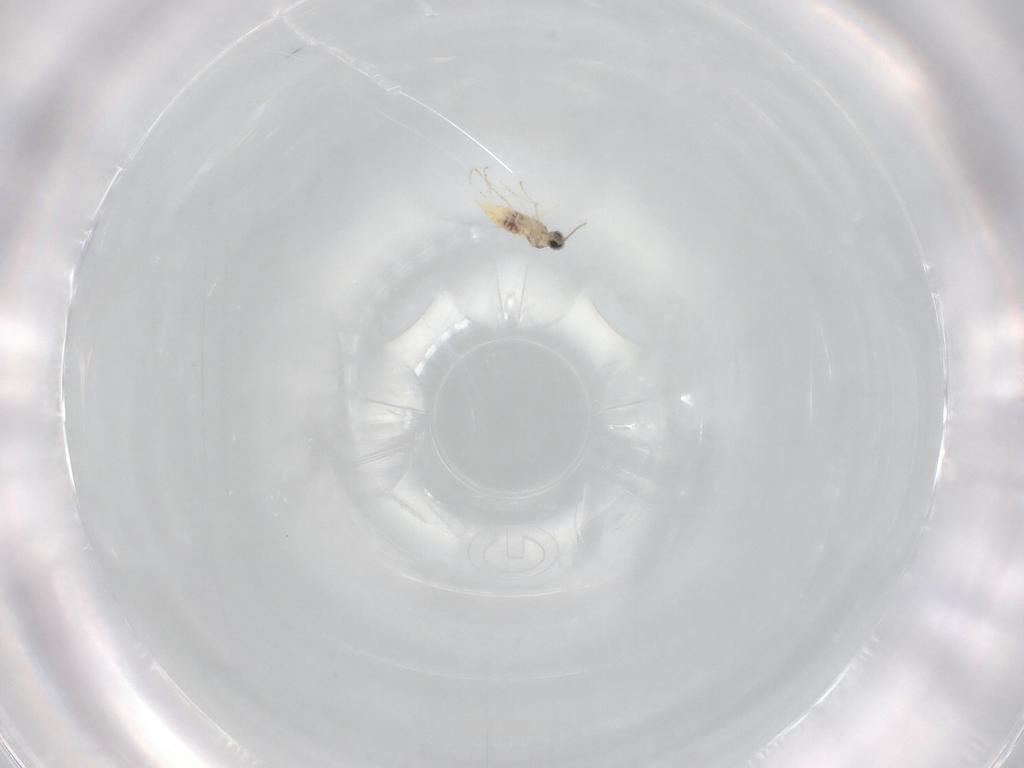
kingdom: Animalia
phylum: Arthropoda
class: Insecta
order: Diptera
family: Cecidomyiidae
